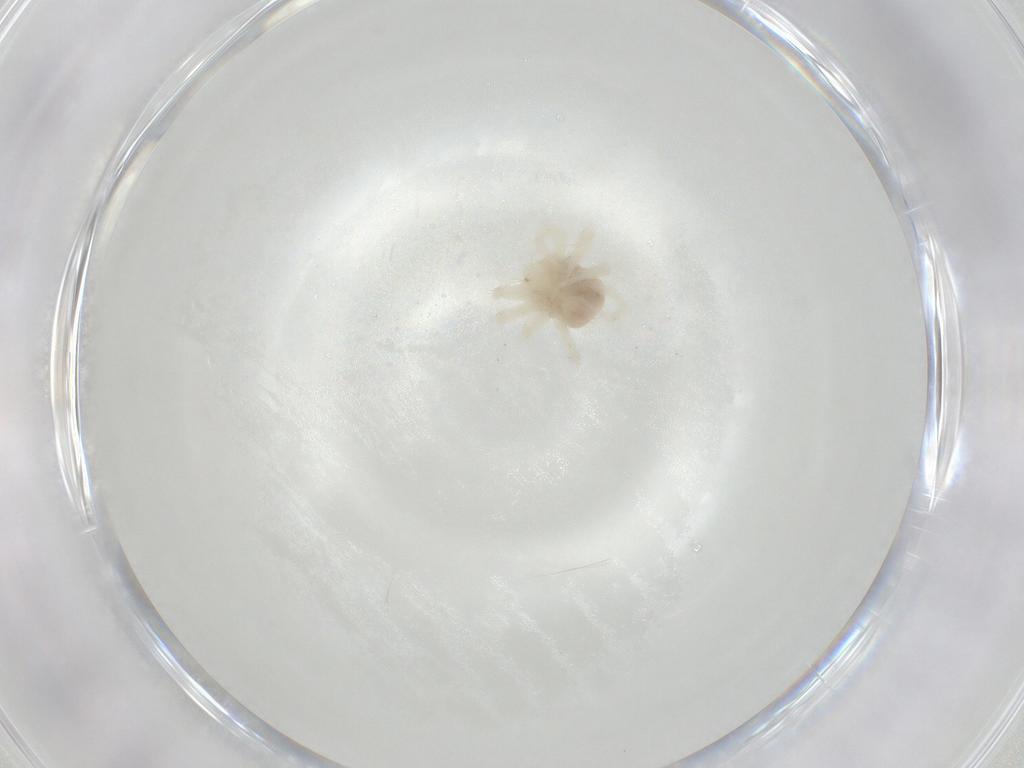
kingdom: Animalia
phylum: Arthropoda
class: Arachnida
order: Trombidiformes
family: Anystidae
